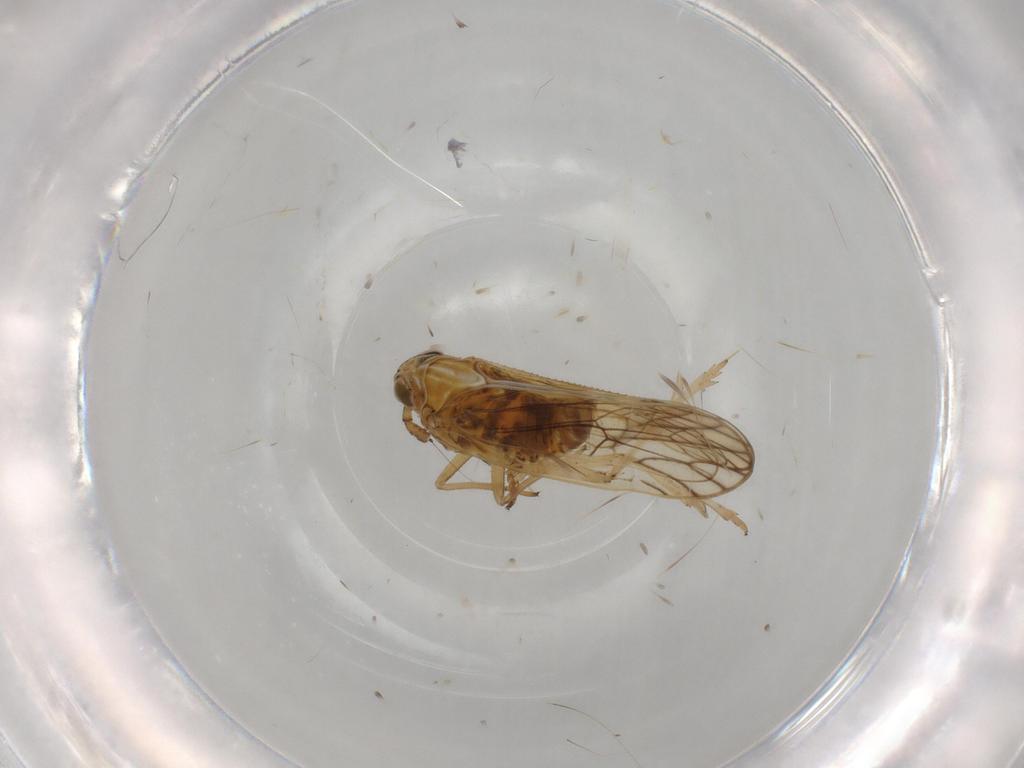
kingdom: Animalia
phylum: Arthropoda
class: Insecta
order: Hemiptera
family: Delphacidae
